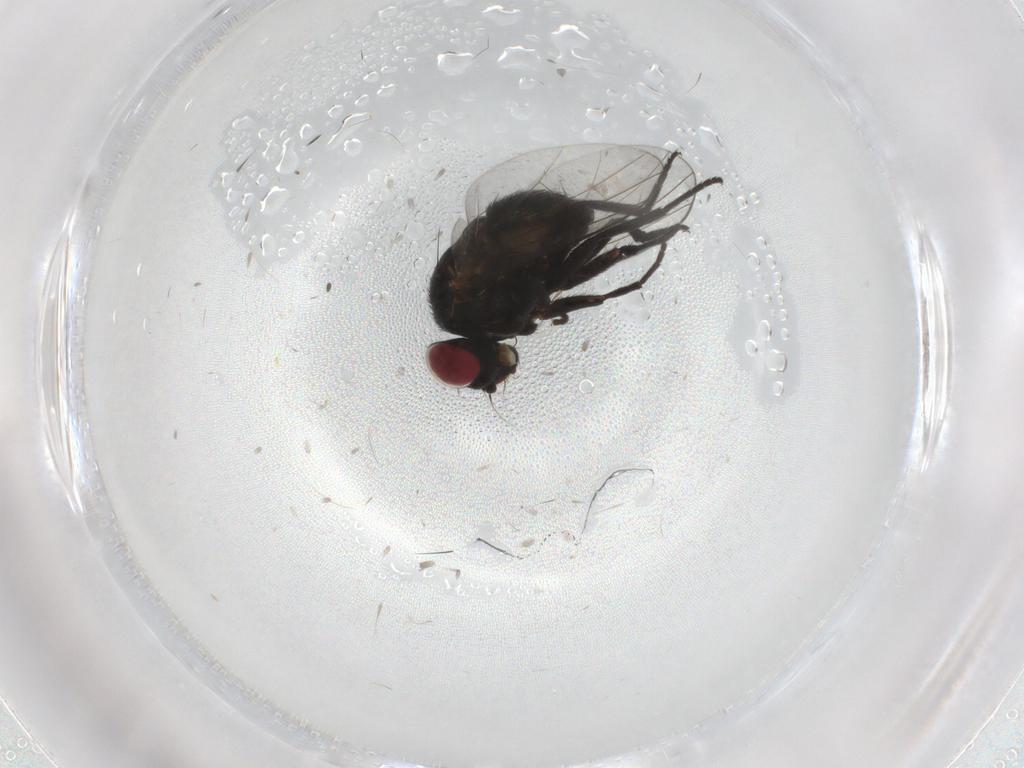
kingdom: Animalia
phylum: Arthropoda
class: Insecta
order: Diptera
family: Agromyzidae
